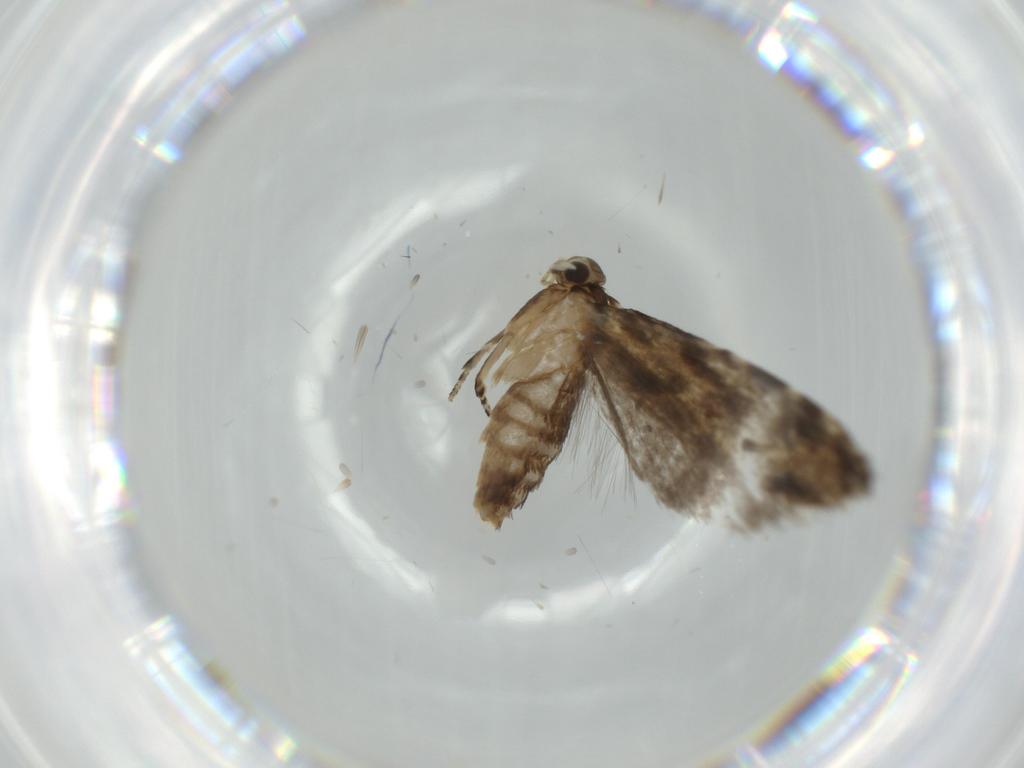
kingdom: Animalia
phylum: Arthropoda
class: Insecta
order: Lepidoptera
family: Tineidae
